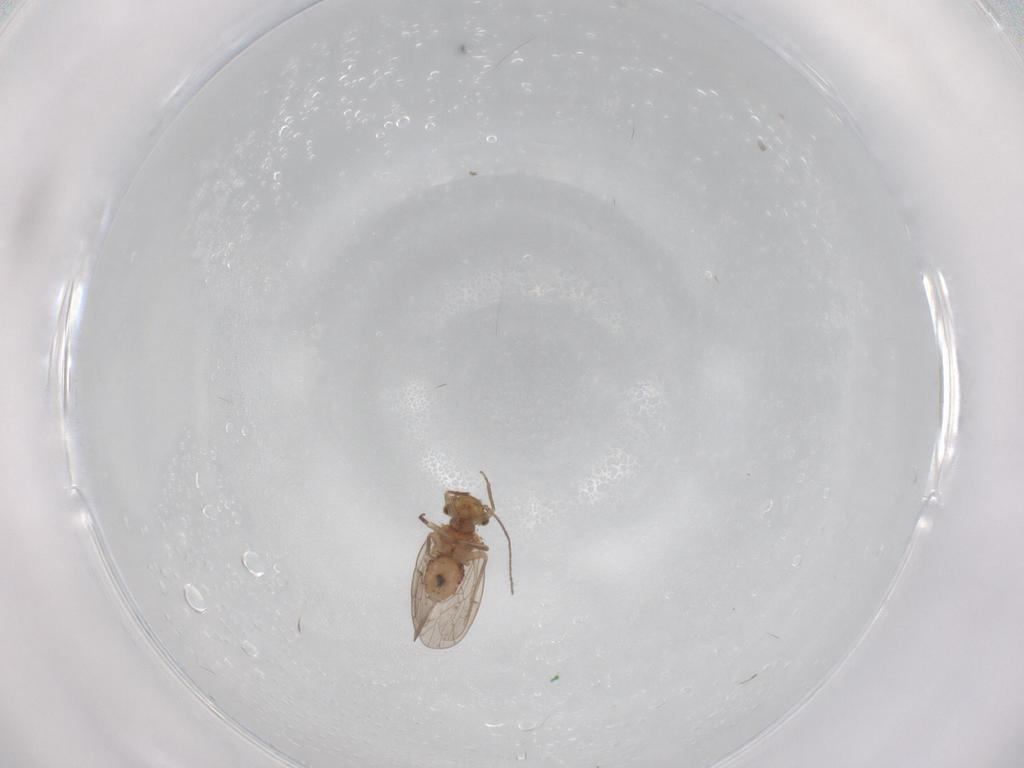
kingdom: Animalia
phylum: Arthropoda
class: Insecta
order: Psocodea
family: Ectopsocidae
